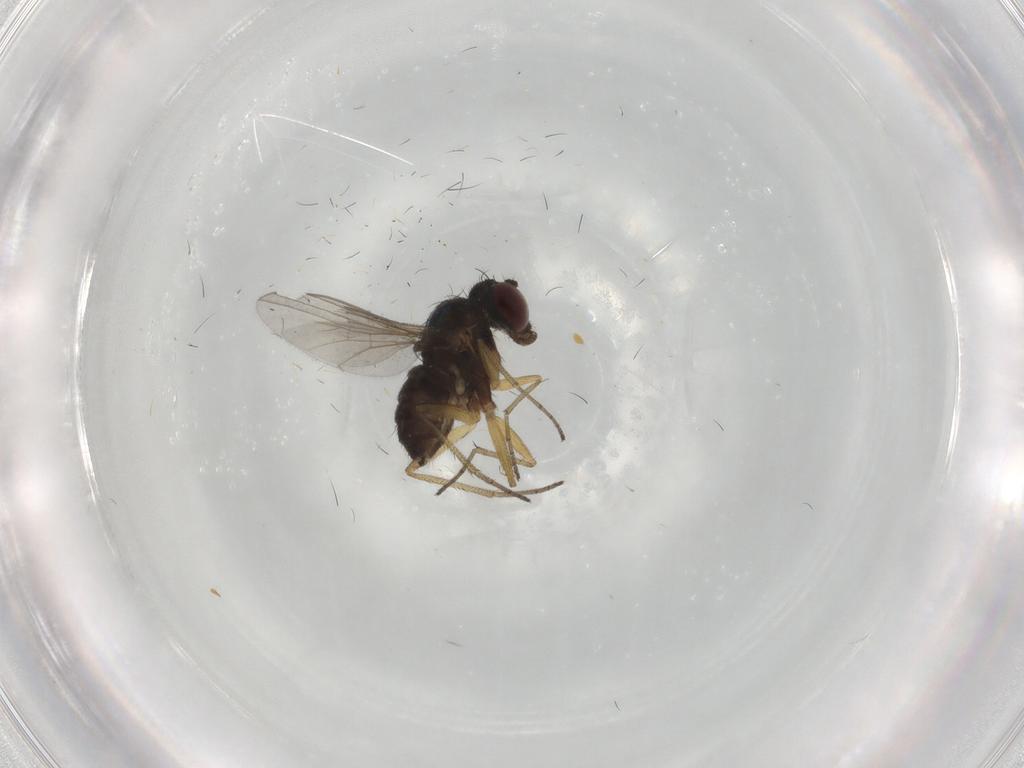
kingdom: Animalia
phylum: Arthropoda
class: Insecta
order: Diptera
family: Dolichopodidae
